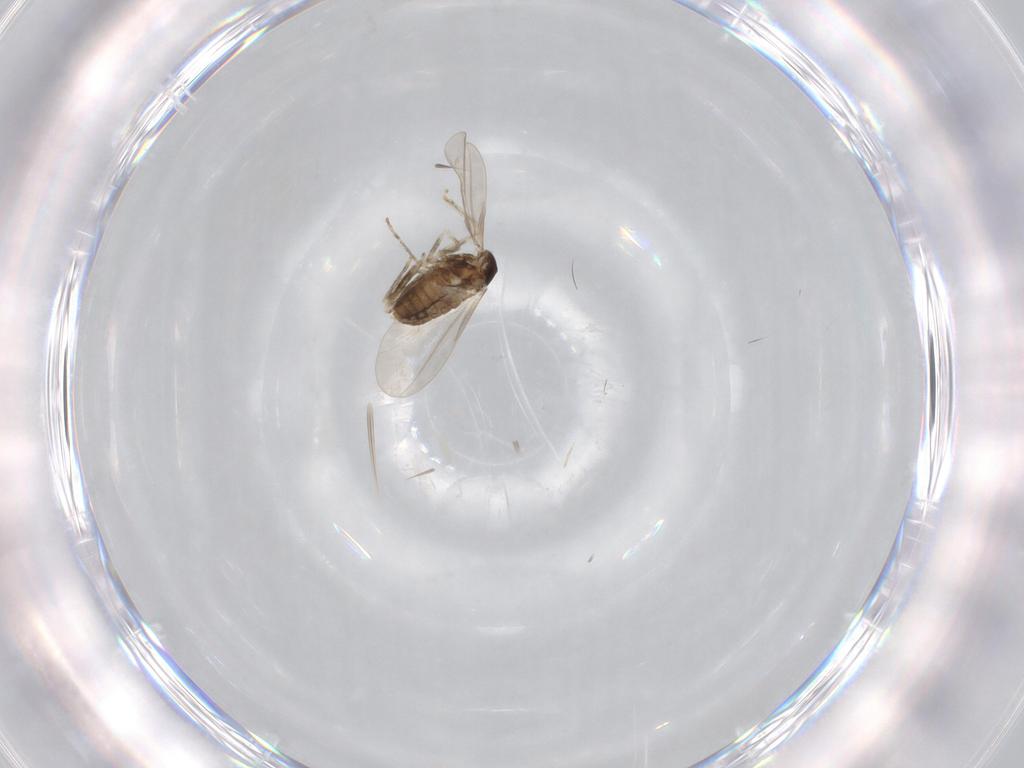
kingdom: Animalia
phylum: Arthropoda
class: Insecta
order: Diptera
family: Cecidomyiidae
